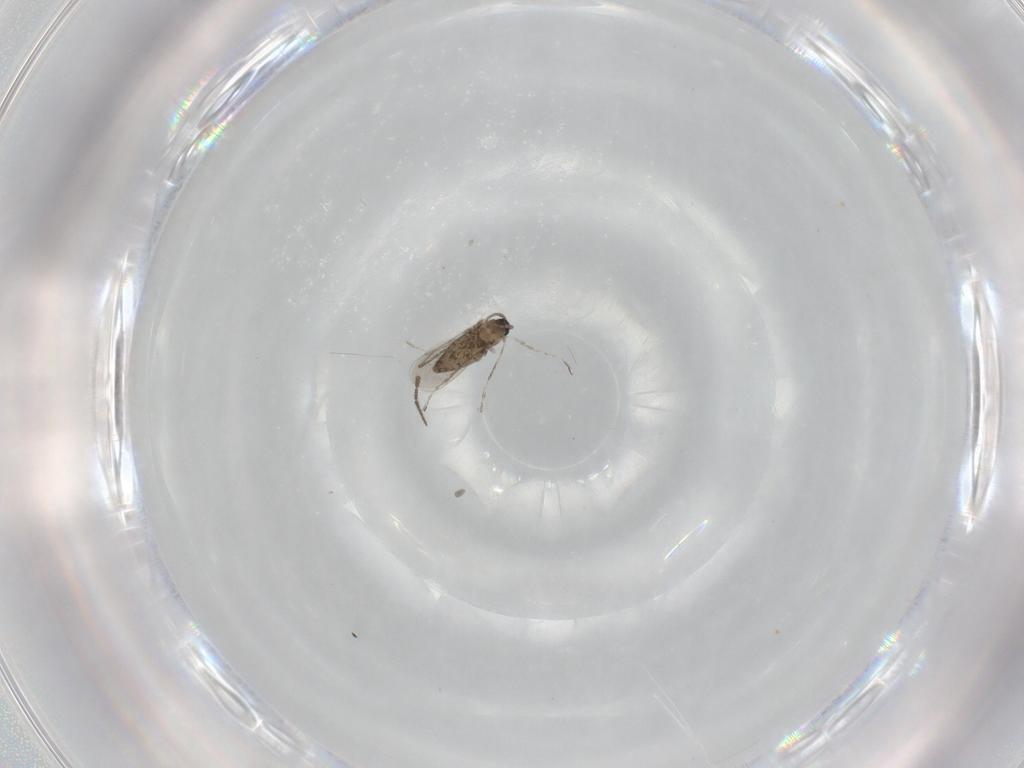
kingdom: Animalia
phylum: Arthropoda
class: Insecta
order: Diptera
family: Sciaridae
